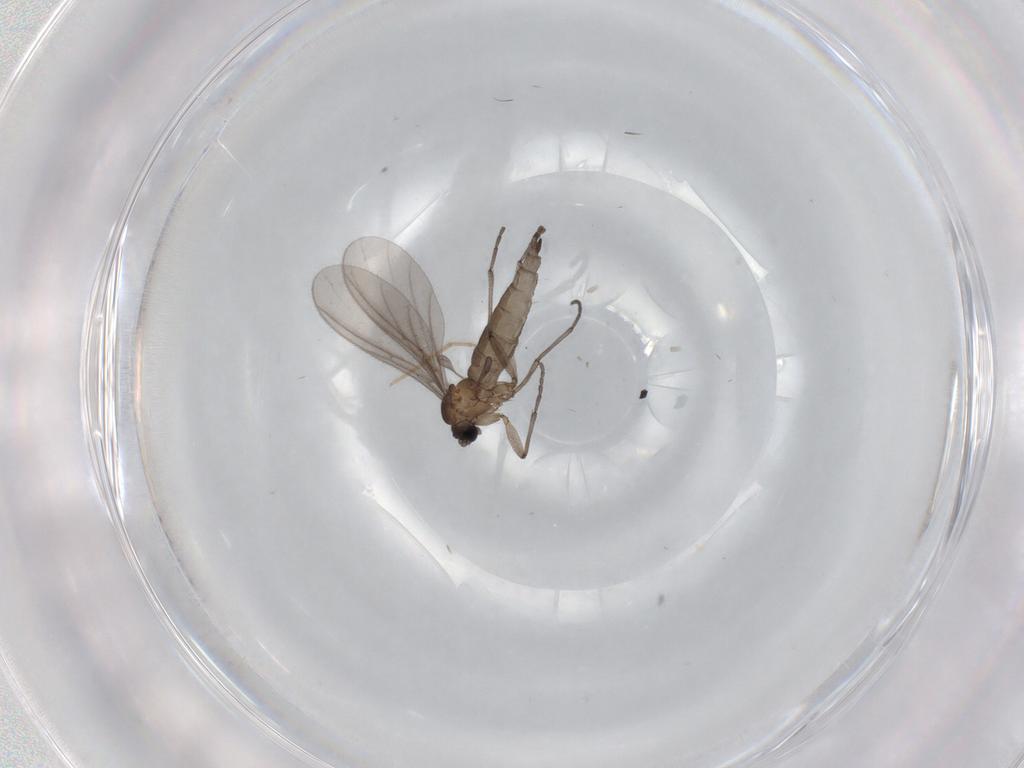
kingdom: Animalia
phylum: Arthropoda
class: Insecta
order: Diptera
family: Sciaridae
